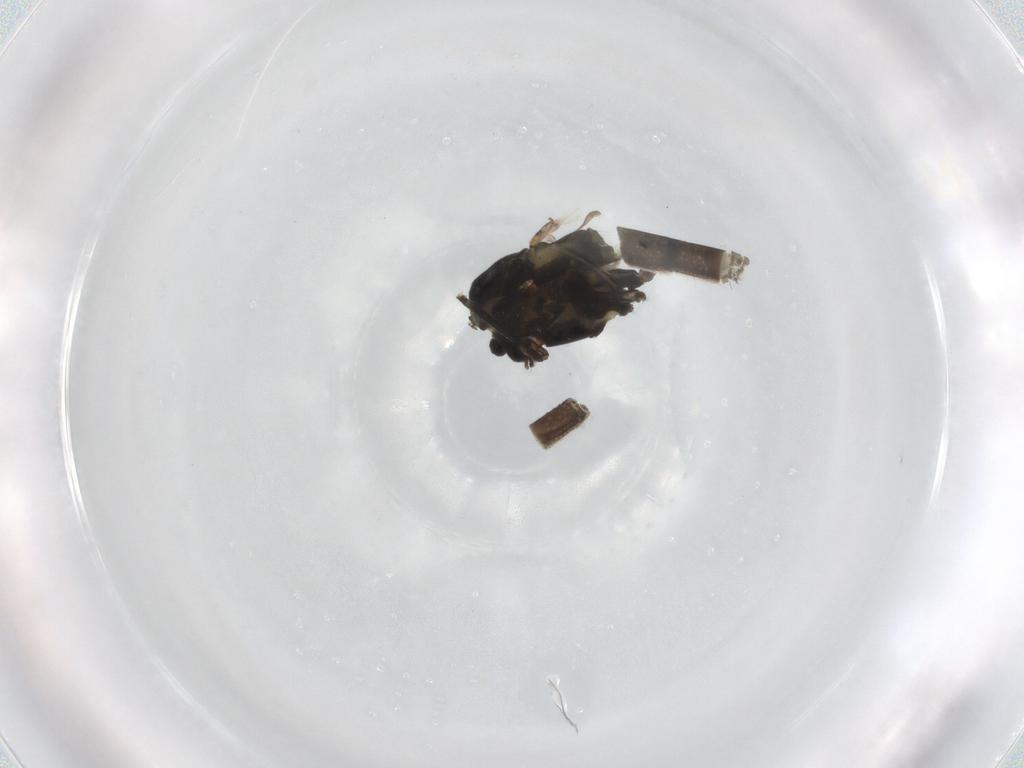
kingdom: Animalia
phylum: Arthropoda
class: Insecta
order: Diptera
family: Chironomidae
